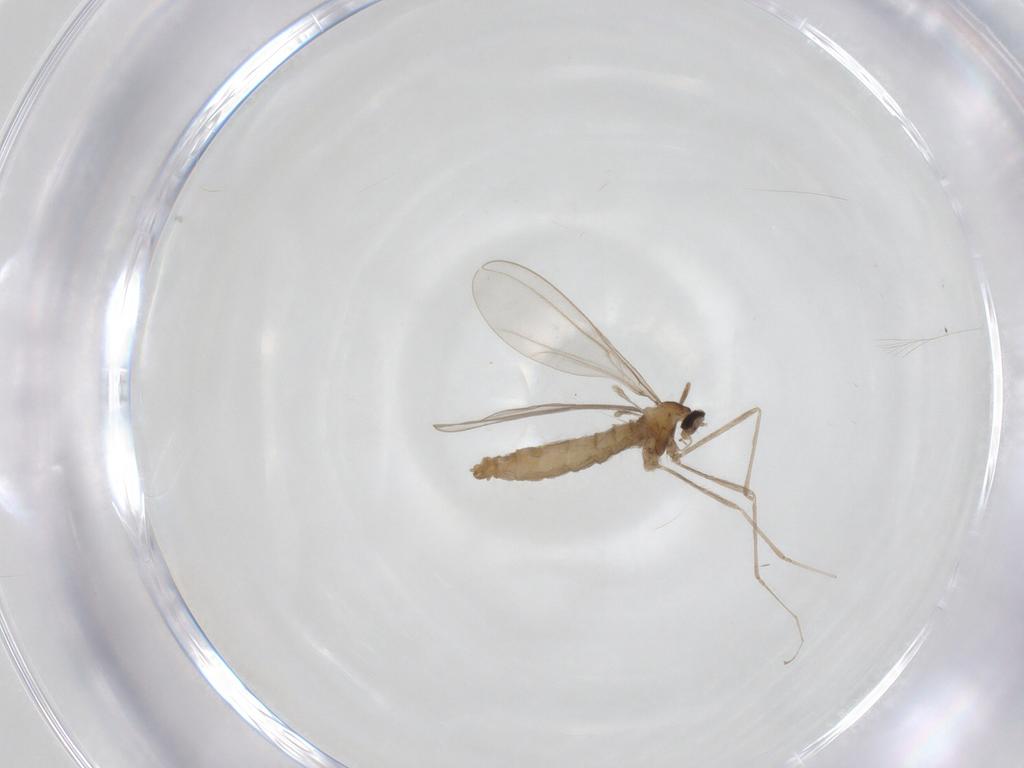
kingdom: Animalia
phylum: Arthropoda
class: Insecta
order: Diptera
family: Cecidomyiidae
